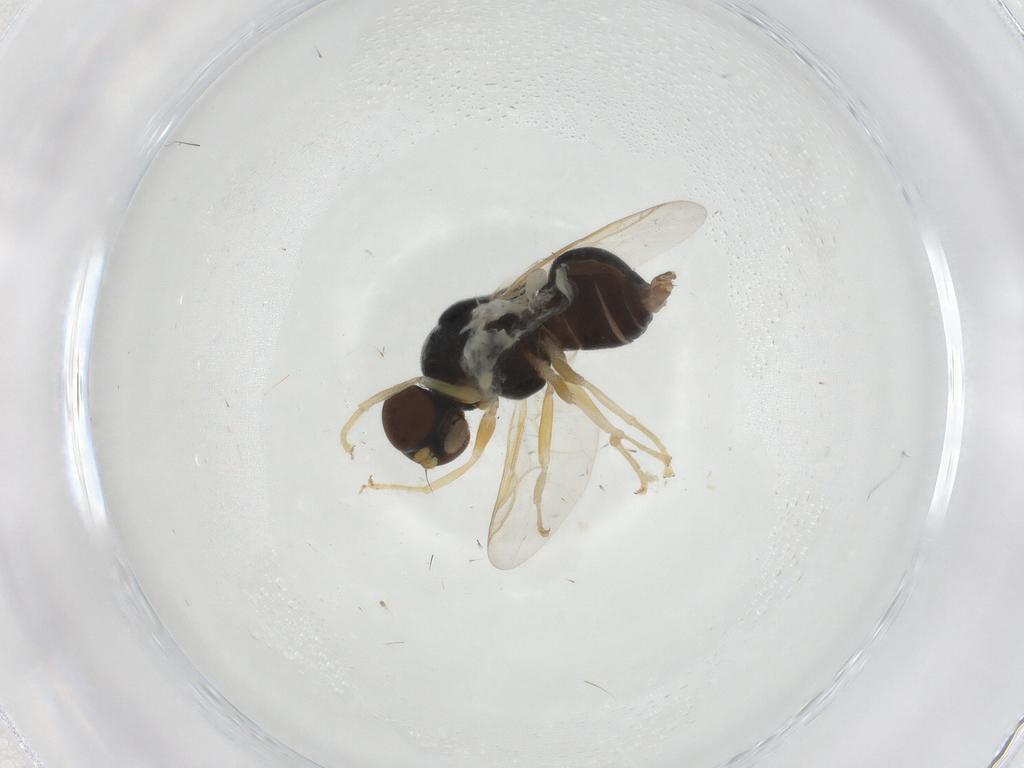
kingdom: Animalia
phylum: Arthropoda
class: Insecta
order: Diptera
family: Stratiomyidae
